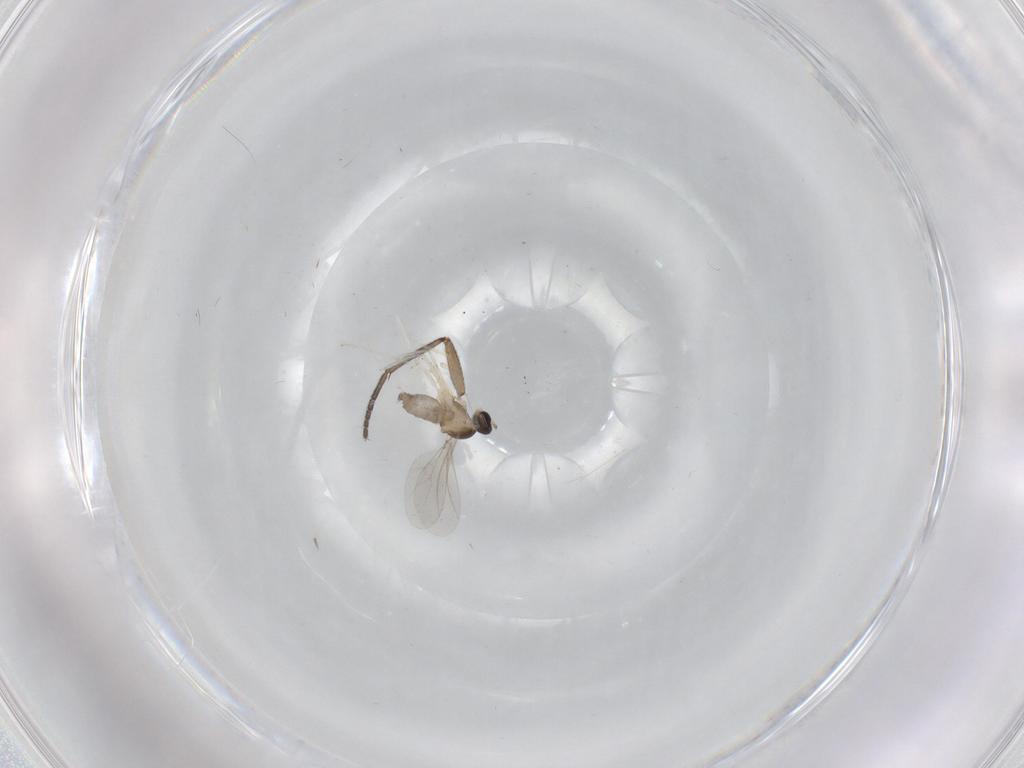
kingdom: Animalia
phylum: Arthropoda
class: Insecta
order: Diptera
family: Cecidomyiidae
